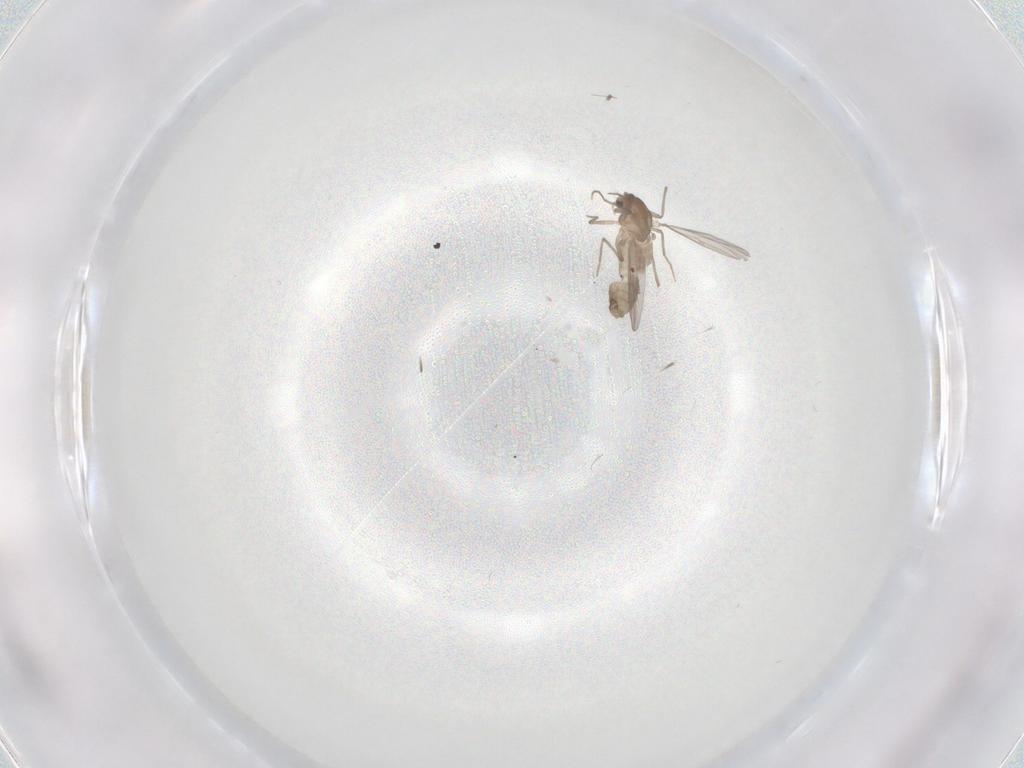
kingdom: Animalia
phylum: Arthropoda
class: Insecta
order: Diptera
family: Chironomidae
